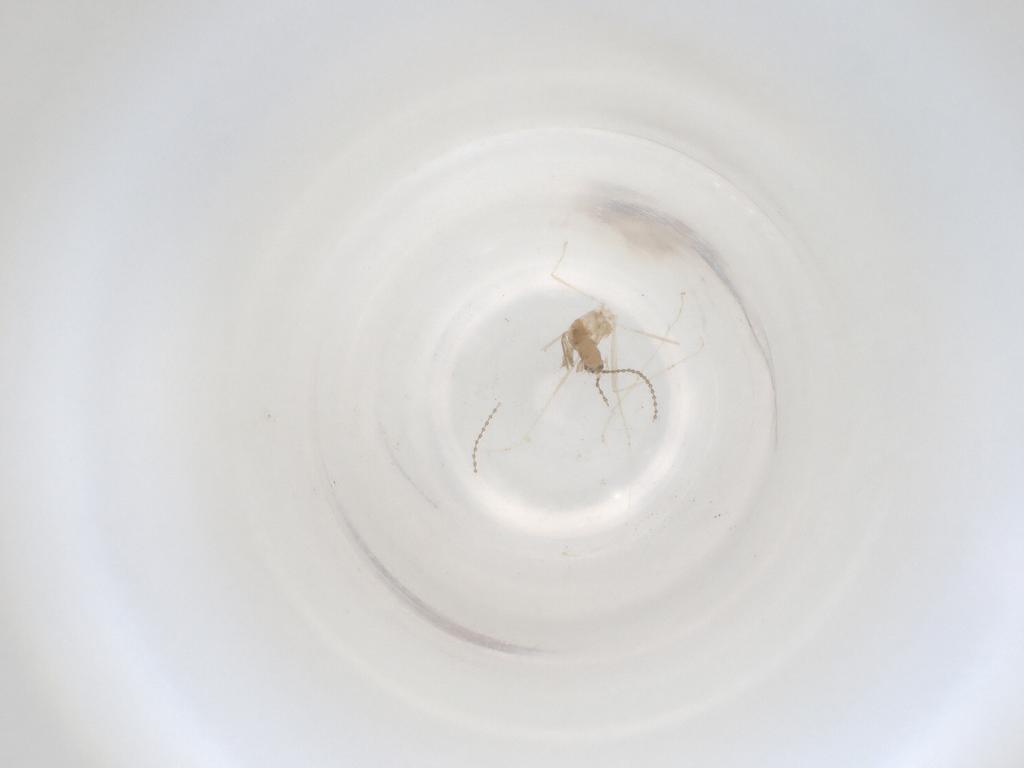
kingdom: Animalia
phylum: Arthropoda
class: Insecta
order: Diptera
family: Cecidomyiidae
